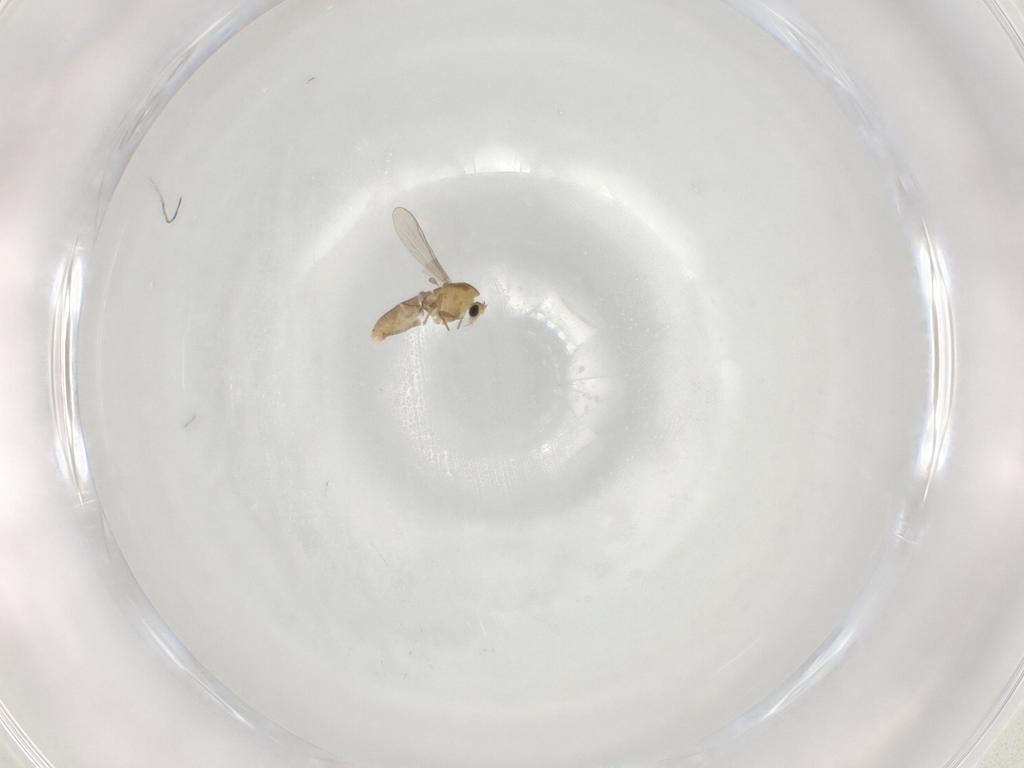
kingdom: Animalia
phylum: Arthropoda
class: Insecta
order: Diptera
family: Chironomidae
